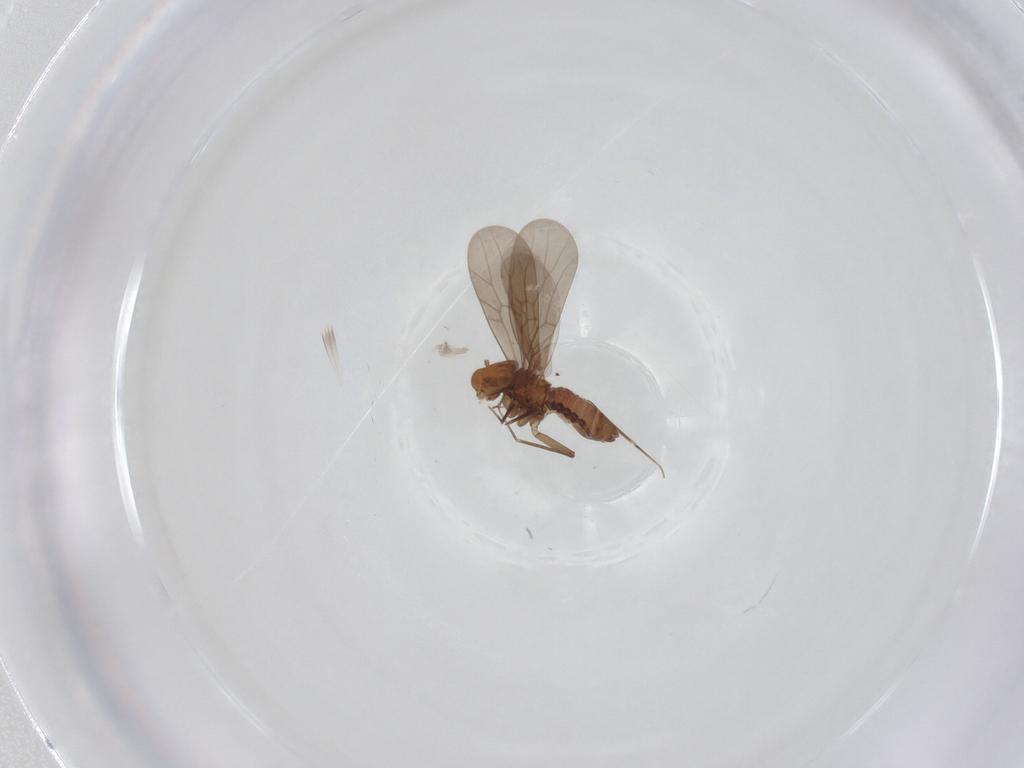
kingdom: Animalia
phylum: Arthropoda
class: Insecta
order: Psocodea
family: Lepidopsocidae
